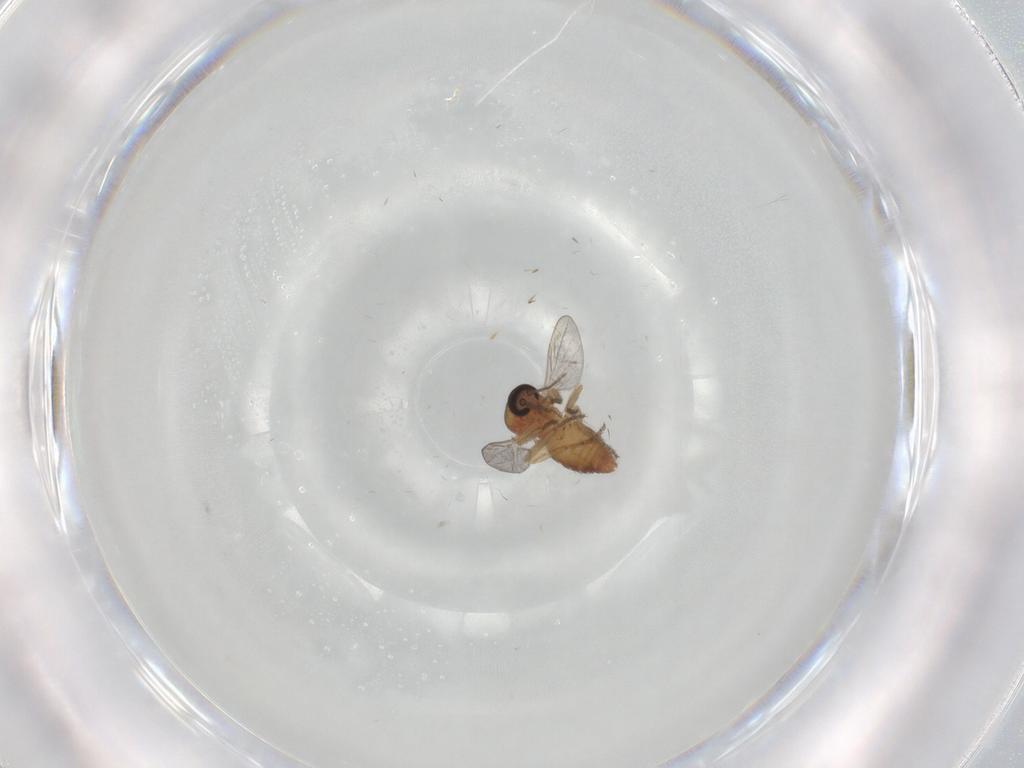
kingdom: Animalia
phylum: Arthropoda
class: Insecta
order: Diptera
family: Ceratopogonidae
